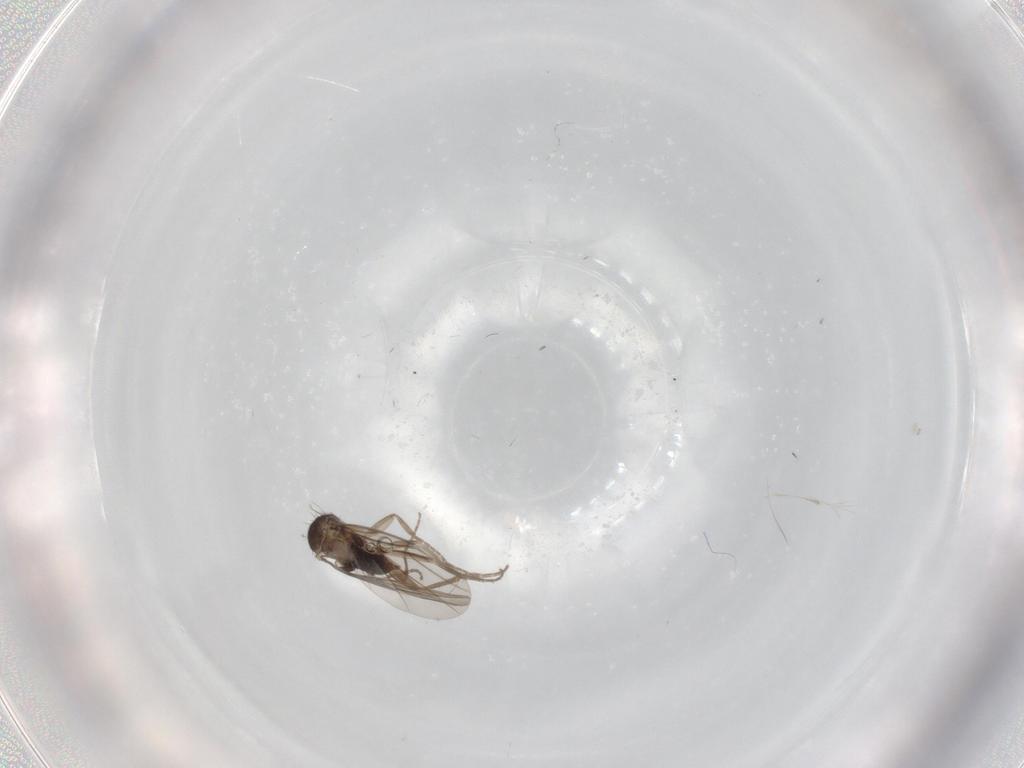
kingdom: Animalia
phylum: Arthropoda
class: Insecta
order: Diptera
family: Phoridae
